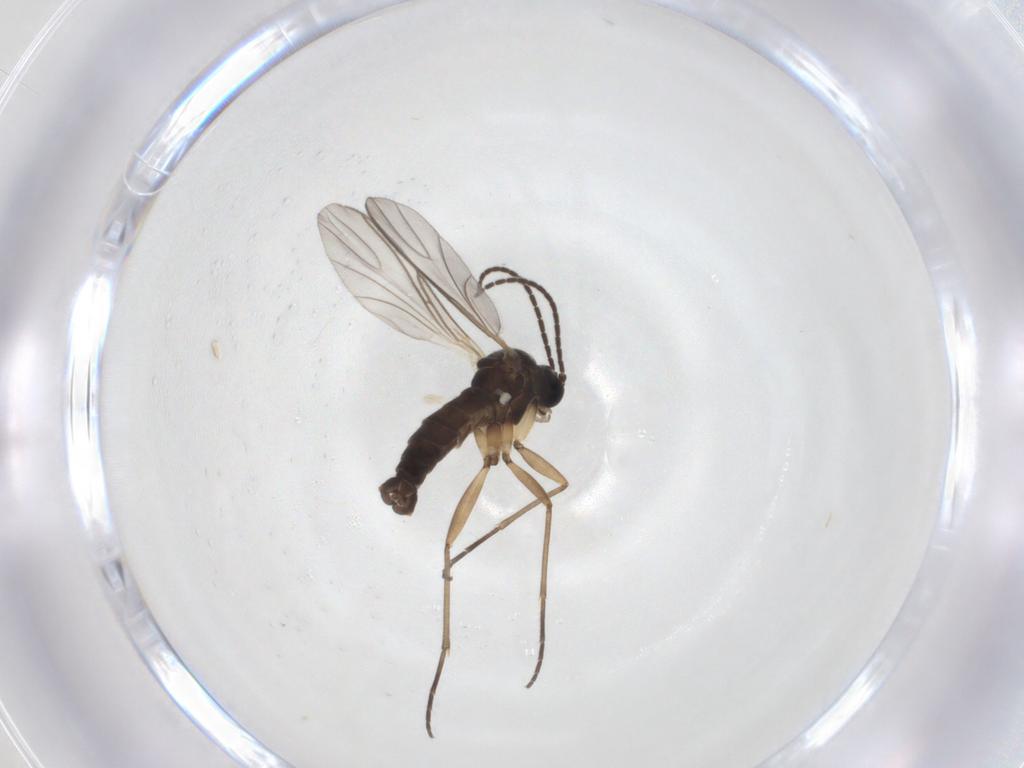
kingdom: Animalia
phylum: Arthropoda
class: Insecta
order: Diptera
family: Sciaridae
